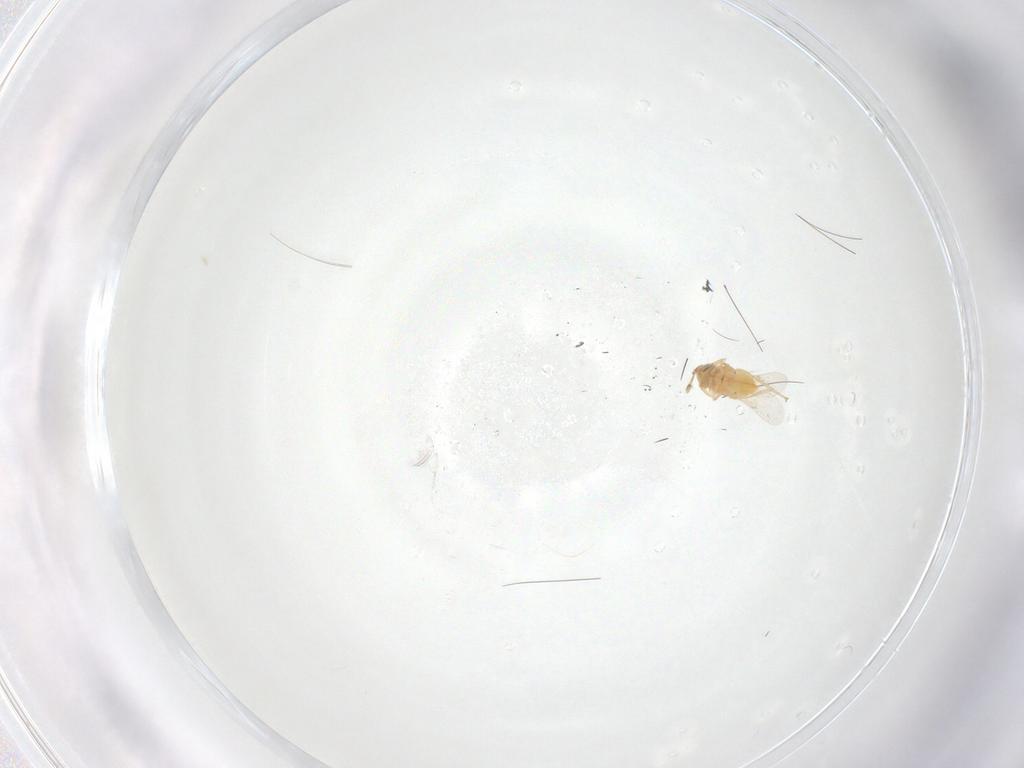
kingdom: Animalia
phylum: Arthropoda
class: Insecta
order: Hymenoptera
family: Formicidae
